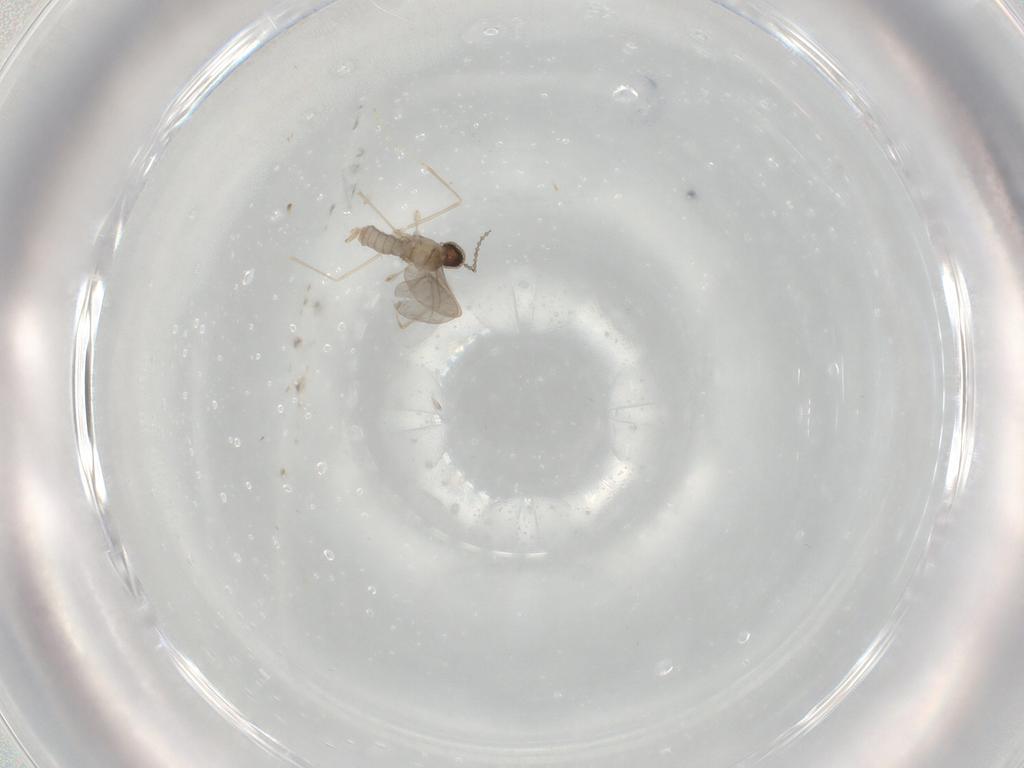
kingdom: Animalia
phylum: Arthropoda
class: Insecta
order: Diptera
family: Cecidomyiidae
